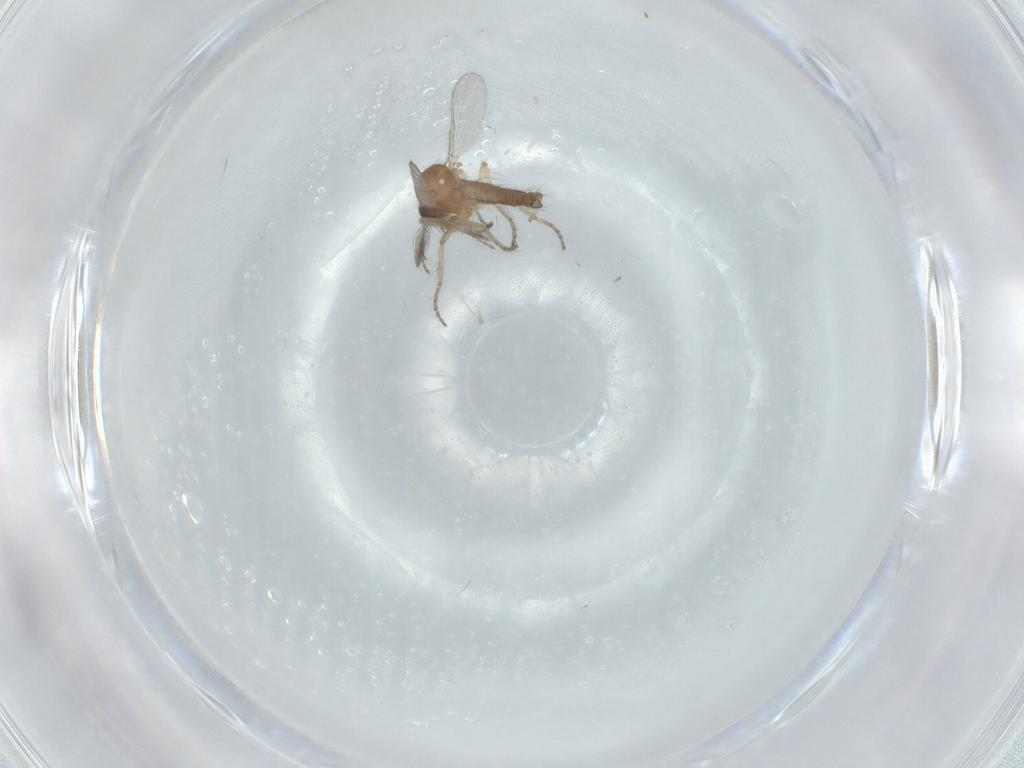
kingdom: Animalia
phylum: Arthropoda
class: Insecta
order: Diptera
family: Ceratopogonidae
